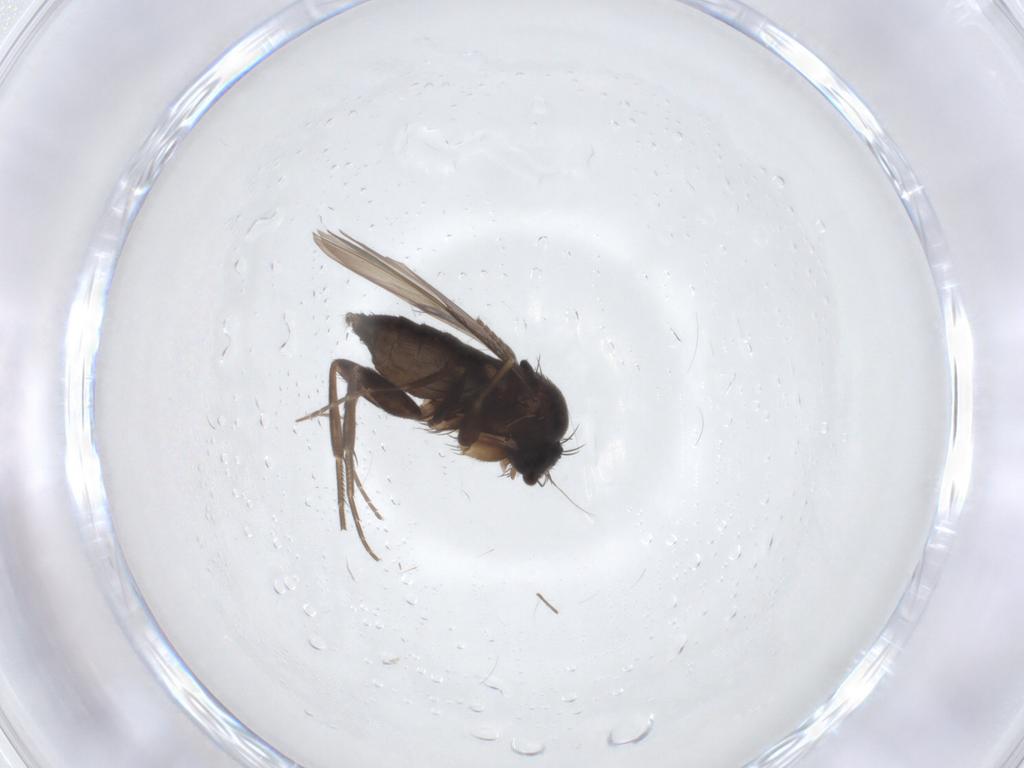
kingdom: Animalia
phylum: Arthropoda
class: Insecta
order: Diptera
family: Phoridae
